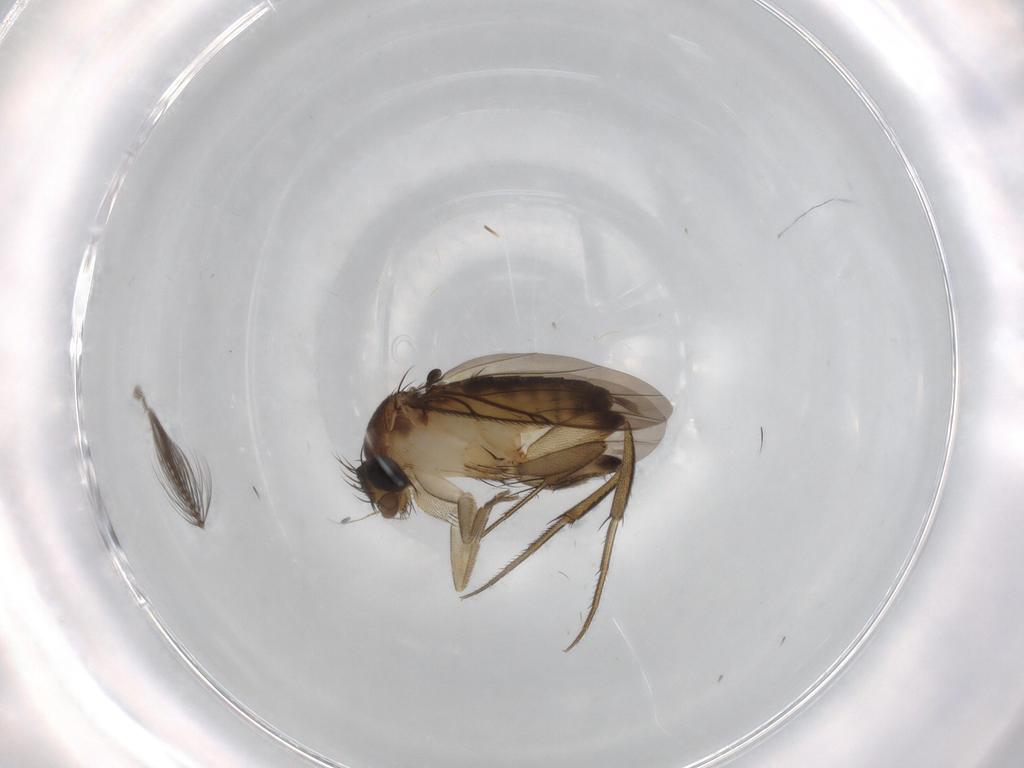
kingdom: Animalia
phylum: Arthropoda
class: Insecta
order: Diptera
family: Ceratopogonidae
